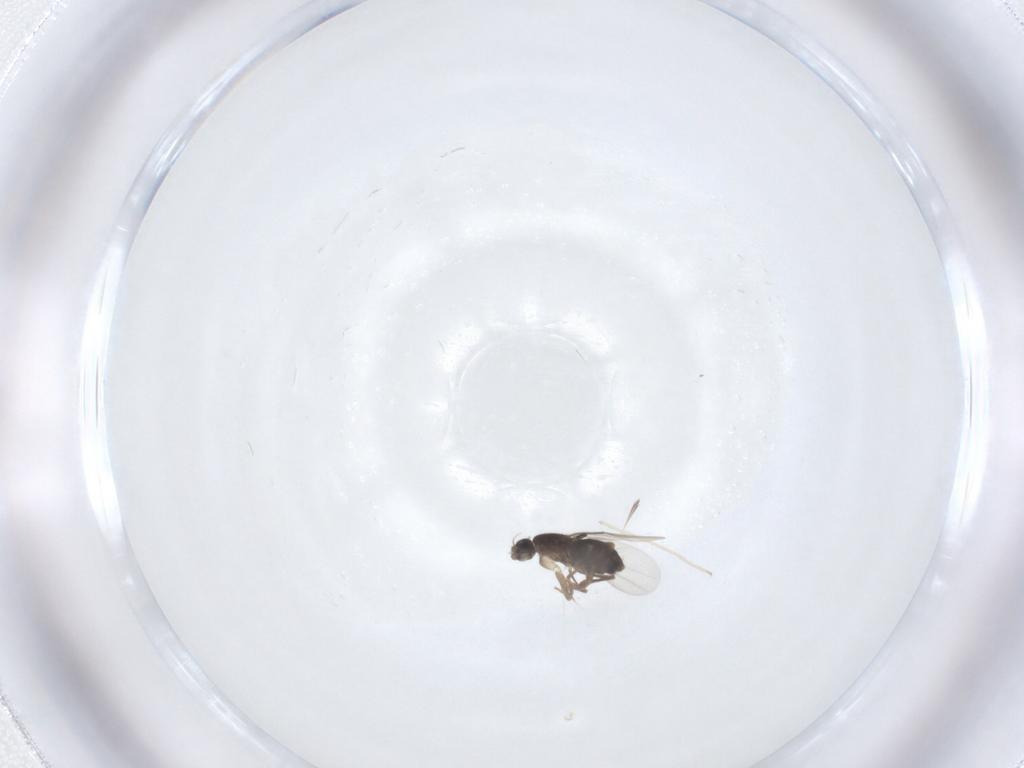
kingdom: Animalia
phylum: Arthropoda
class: Insecta
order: Diptera
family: Phoridae
